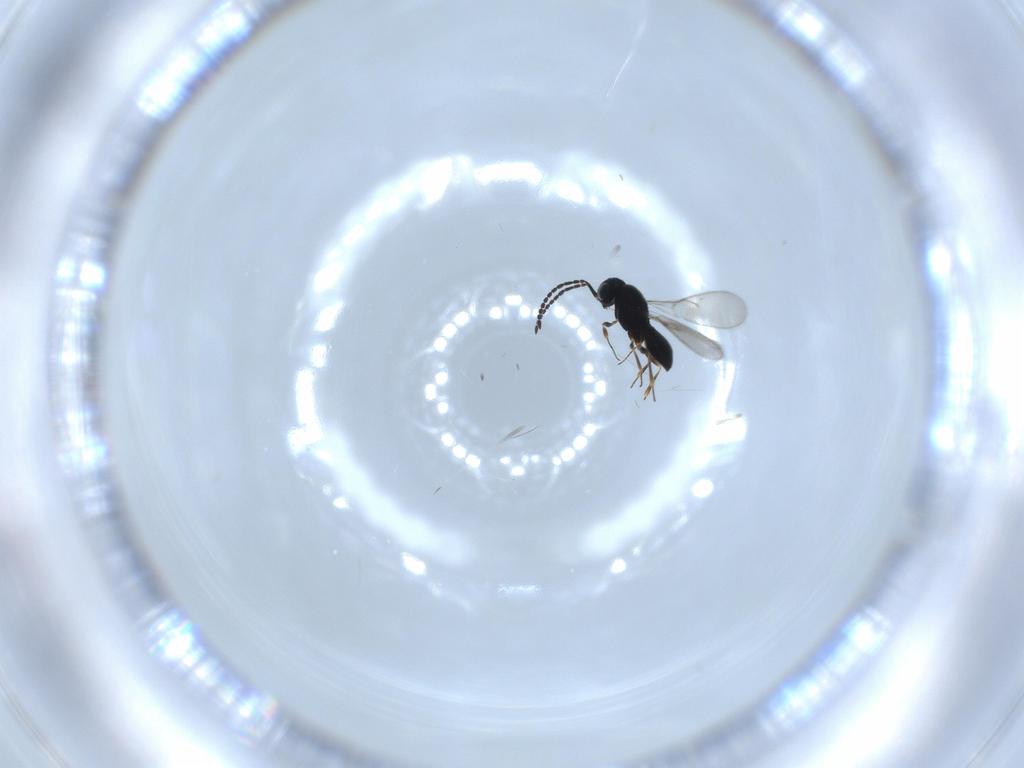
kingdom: Animalia
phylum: Arthropoda
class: Insecta
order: Hymenoptera
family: Scelionidae
